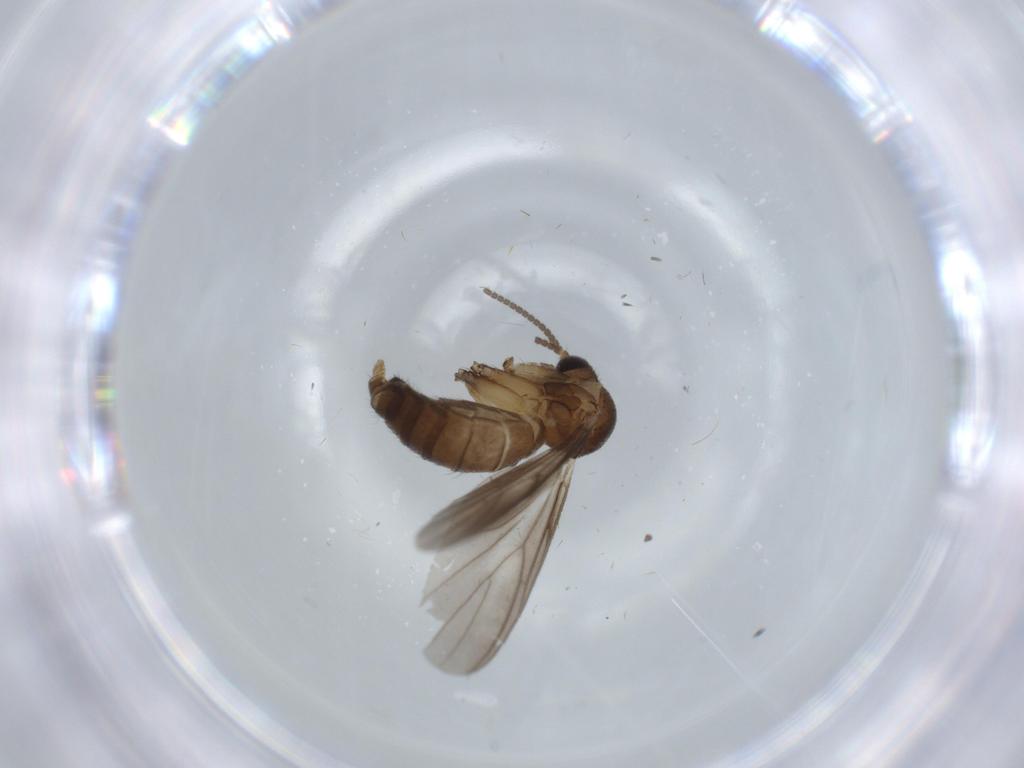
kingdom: Animalia
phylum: Arthropoda
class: Insecta
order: Diptera
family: Mycetophilidae
